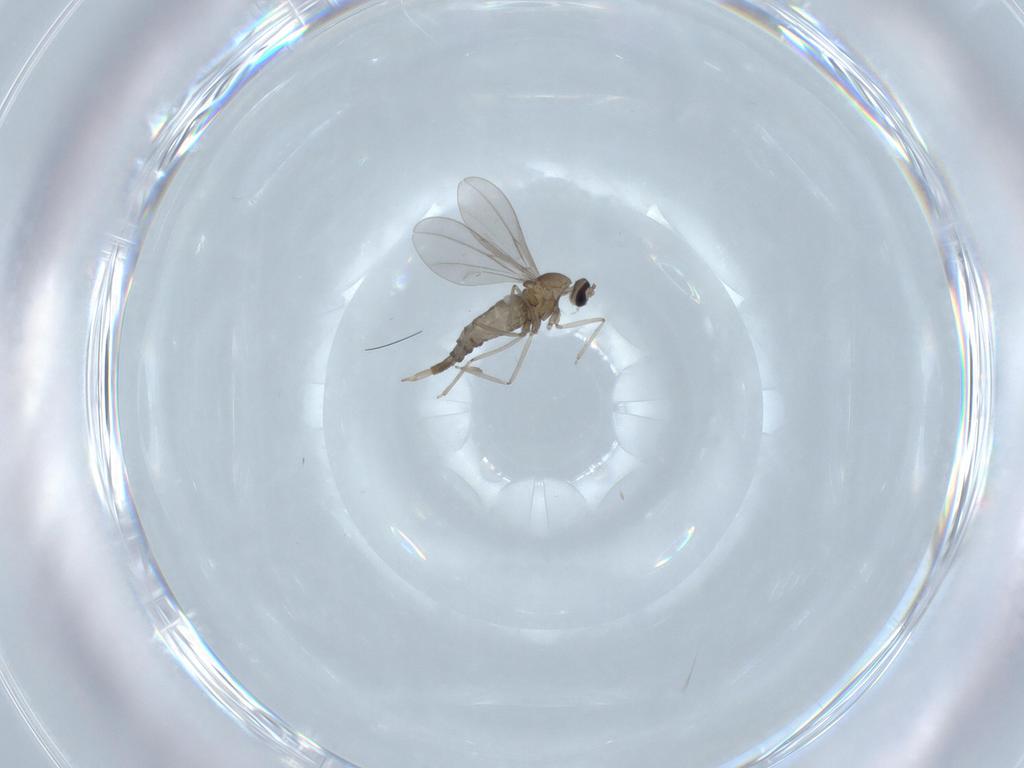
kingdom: Animalia
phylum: Arthropoda
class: Insecta
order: Diptera
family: Cecidomyiidae
